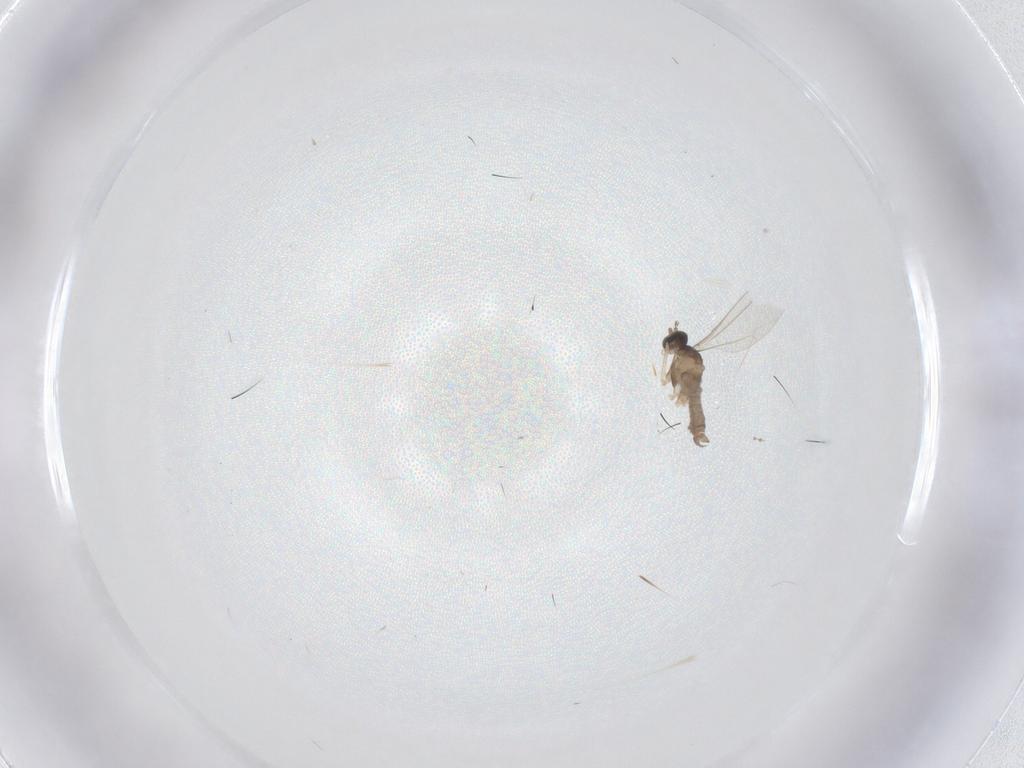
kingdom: Animalia
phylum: Arthropoda
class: Insecta
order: Diptera
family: Cecidomyiidae
